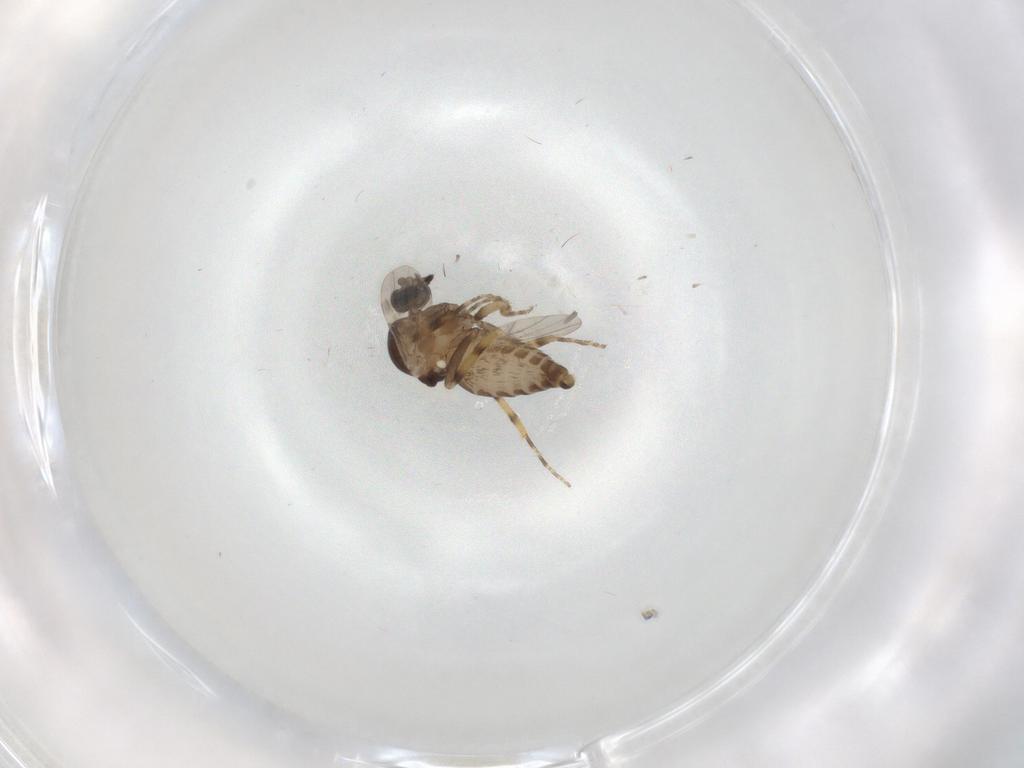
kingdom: Animalia
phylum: Arthropoda
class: Insecta
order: Diptera
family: Ceratopogonidae
